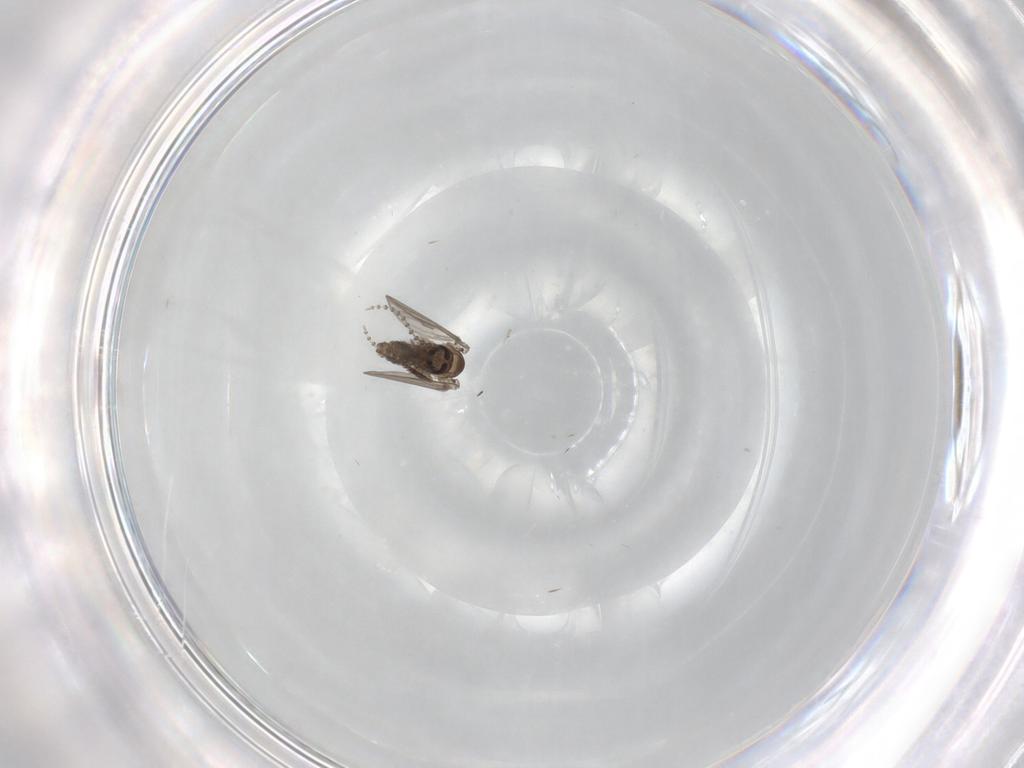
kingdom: Animalia
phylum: Arthropoda
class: Insecta
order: Diptera
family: Psychodidae
